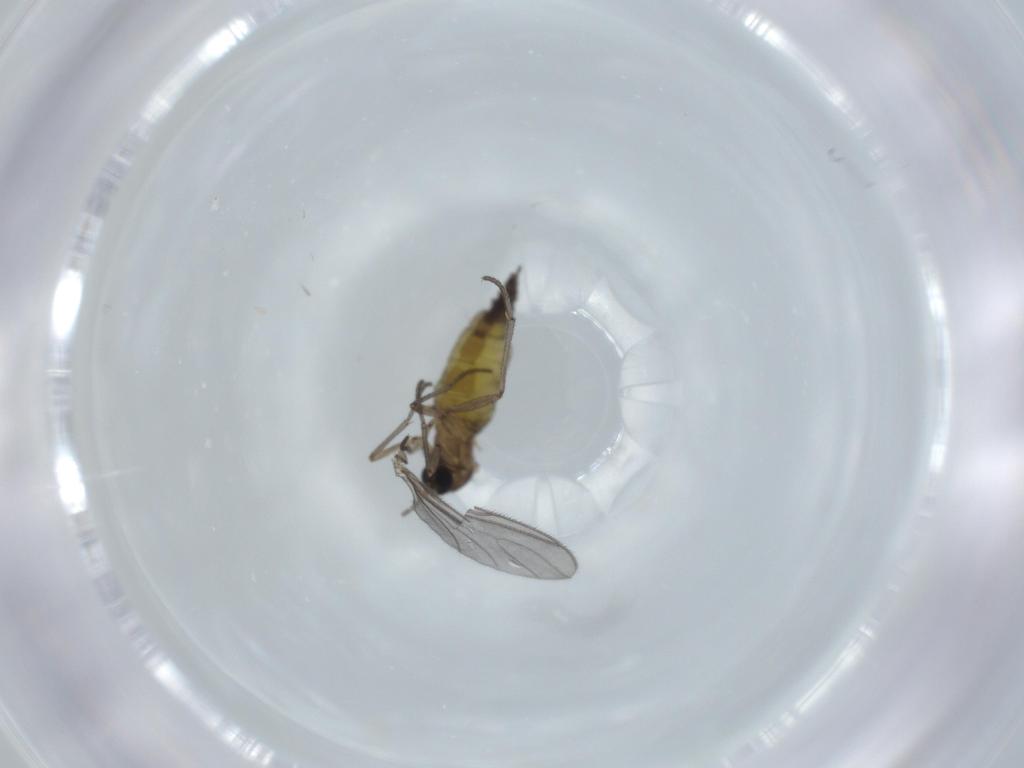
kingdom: Animalia
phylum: Arthropoda
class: Insecta
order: Diptera
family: Sciaridae
